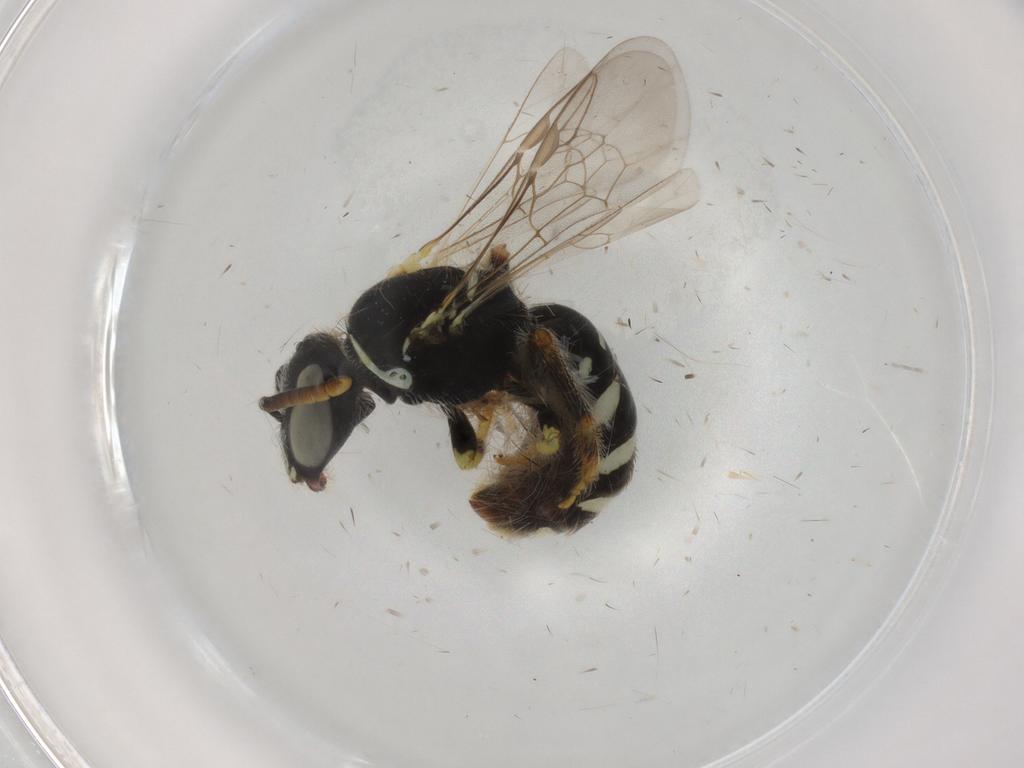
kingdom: Animalia
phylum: Arthropoda
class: Insecta
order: Hymenoptera
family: Halictidae
